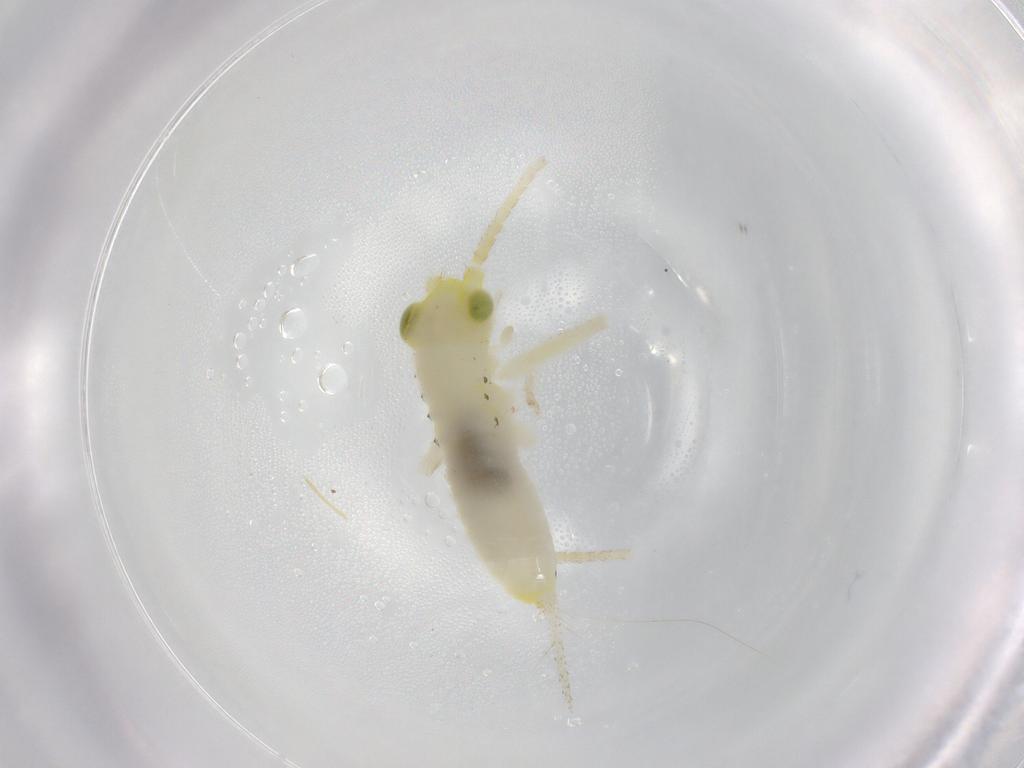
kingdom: Animalia
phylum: Arthropoda
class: Insecta
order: Orthoptera
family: Trigonidiidae
